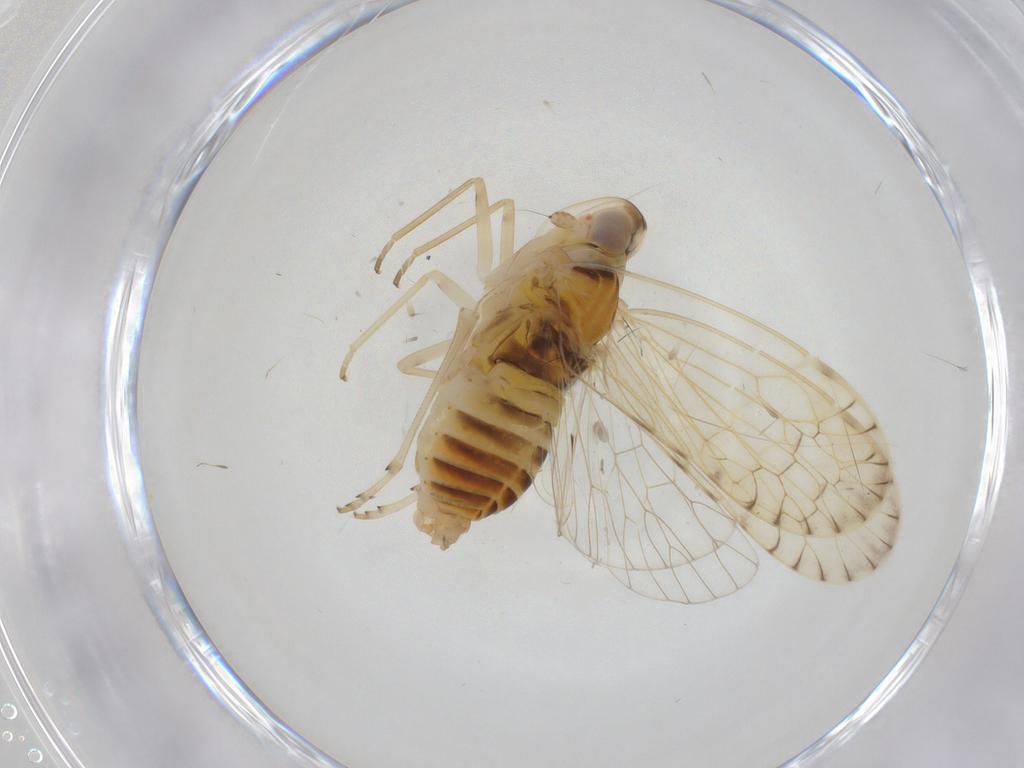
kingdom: Animalia
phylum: Arthropoda
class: Insecta
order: Hemiptera
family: Kinnaridae
